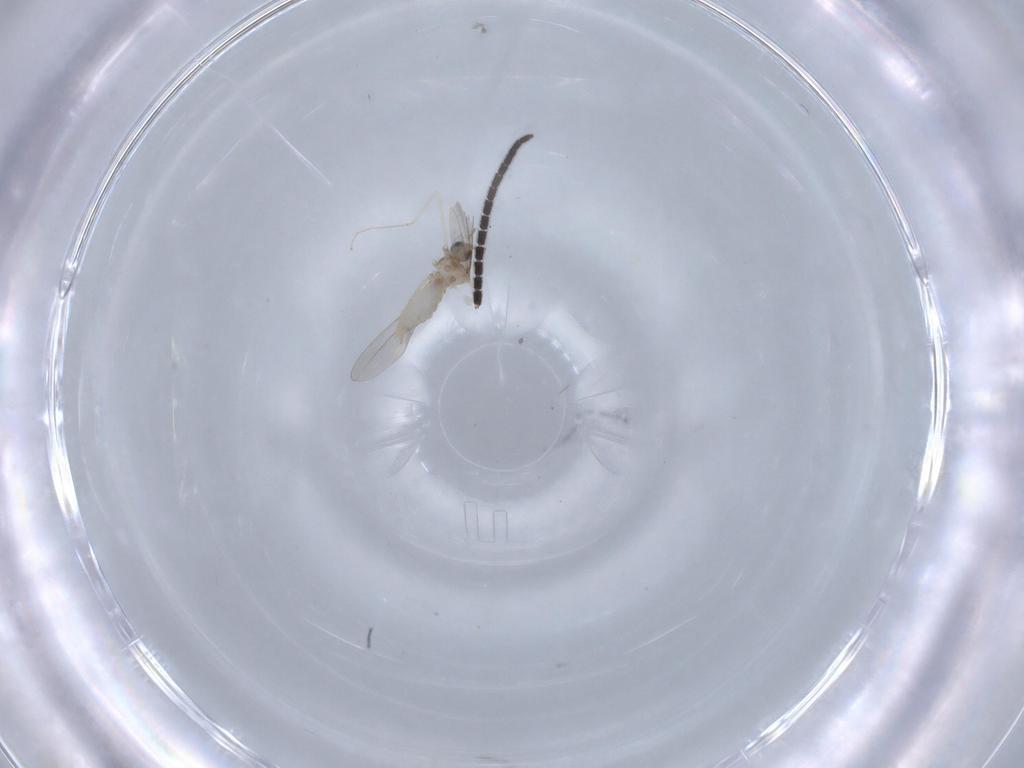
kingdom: Animalia
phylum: Arthropoda
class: Insecta
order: Diptera
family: Cecidomyiidae
